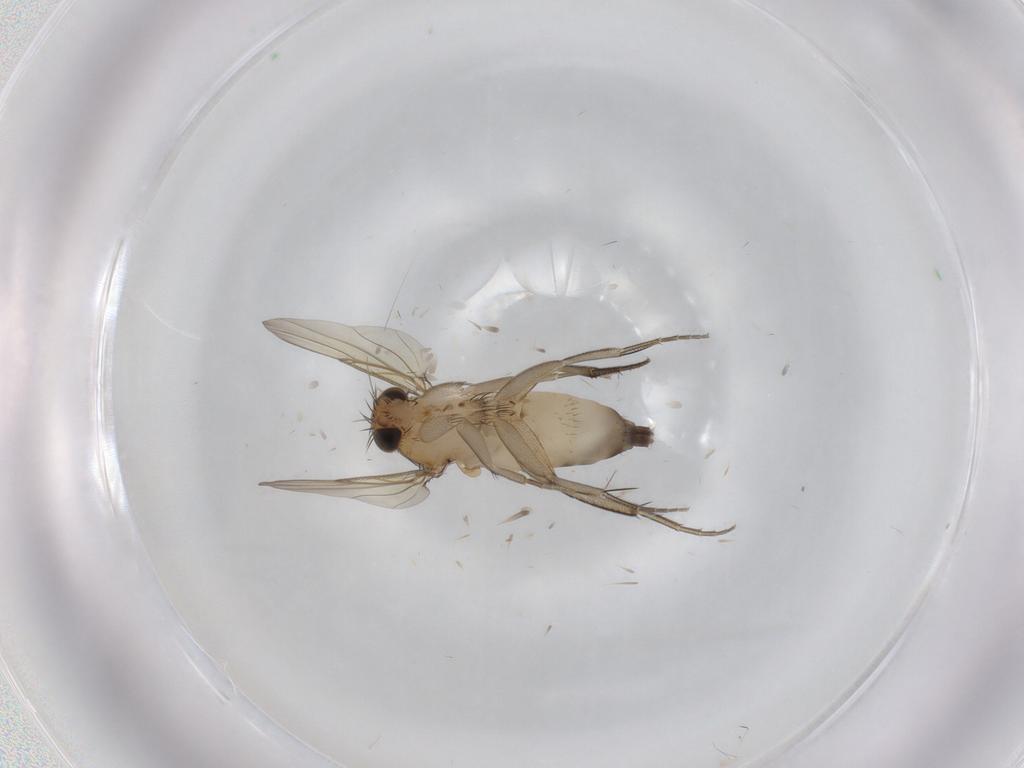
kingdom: Animalia
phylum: Arthropoda
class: Insecta
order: Diptera
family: Phoridae
